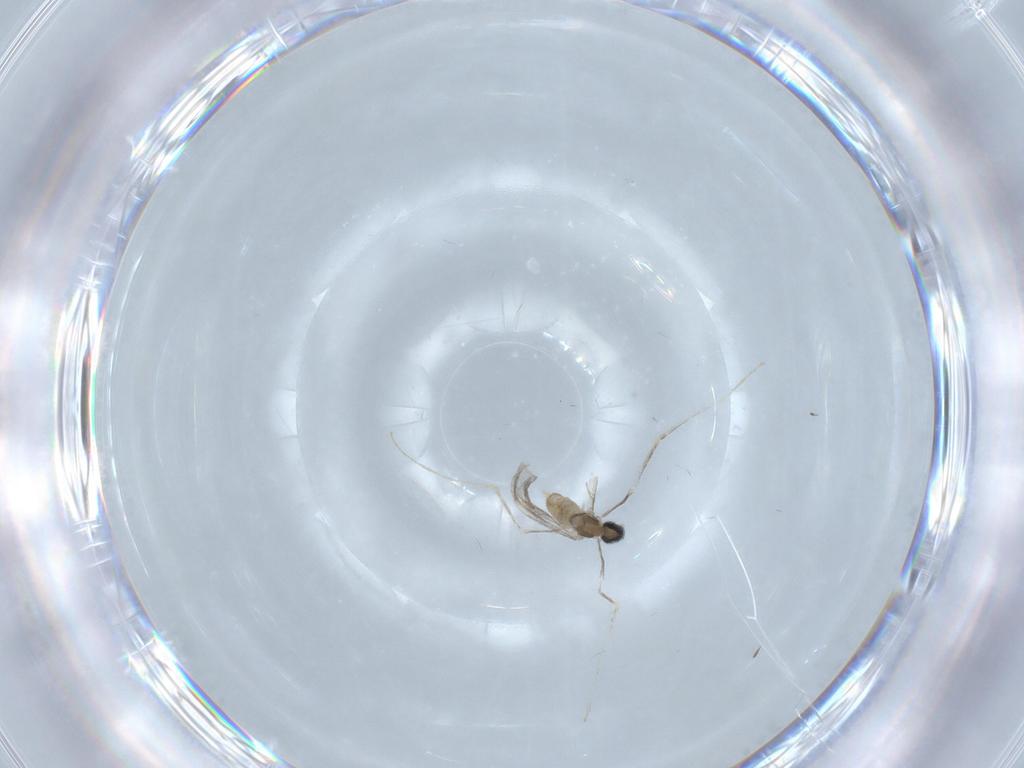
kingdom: Animalia
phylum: Arthropoda
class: Insecta
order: Diptera
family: Cecidomyiidae
